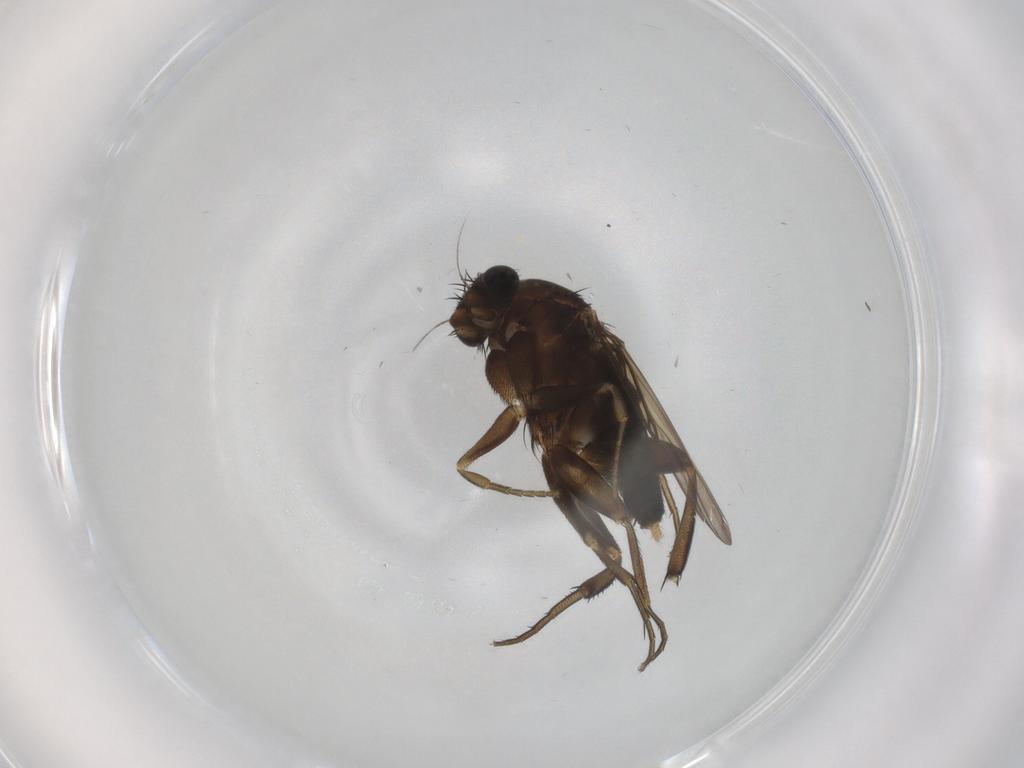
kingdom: Animalia
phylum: Arthropoda
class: Insecta
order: Diptera
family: Phoridae
